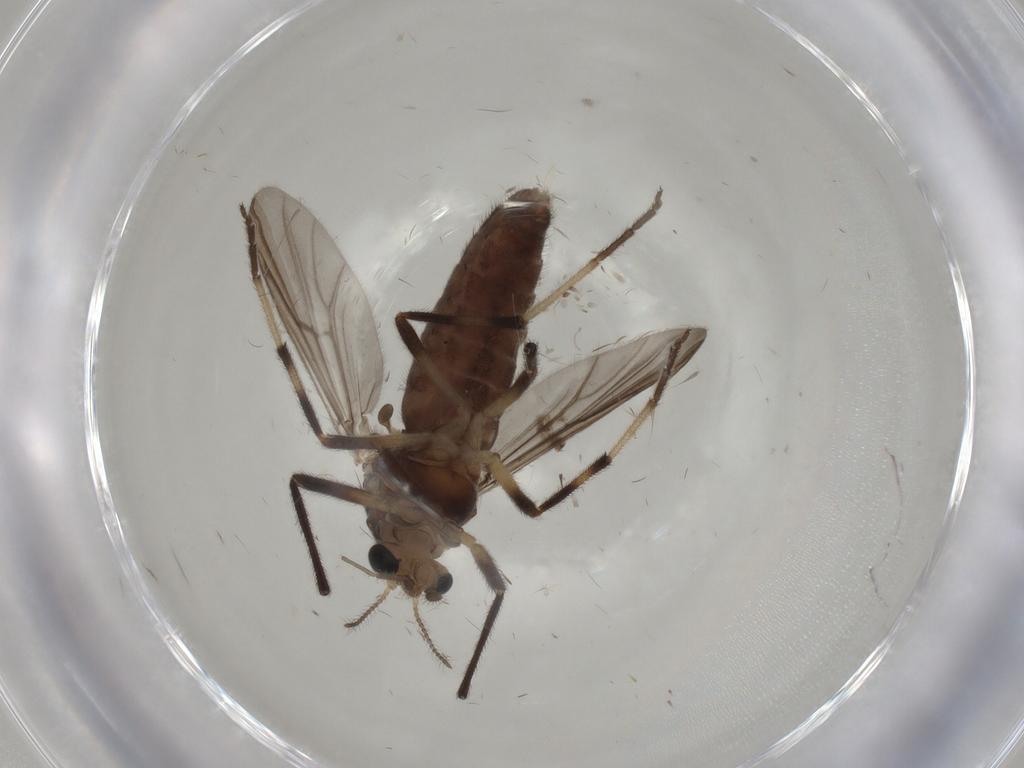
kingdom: Animalia
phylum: Arthropoda
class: Insecta
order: Diptera
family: Chironomidae
